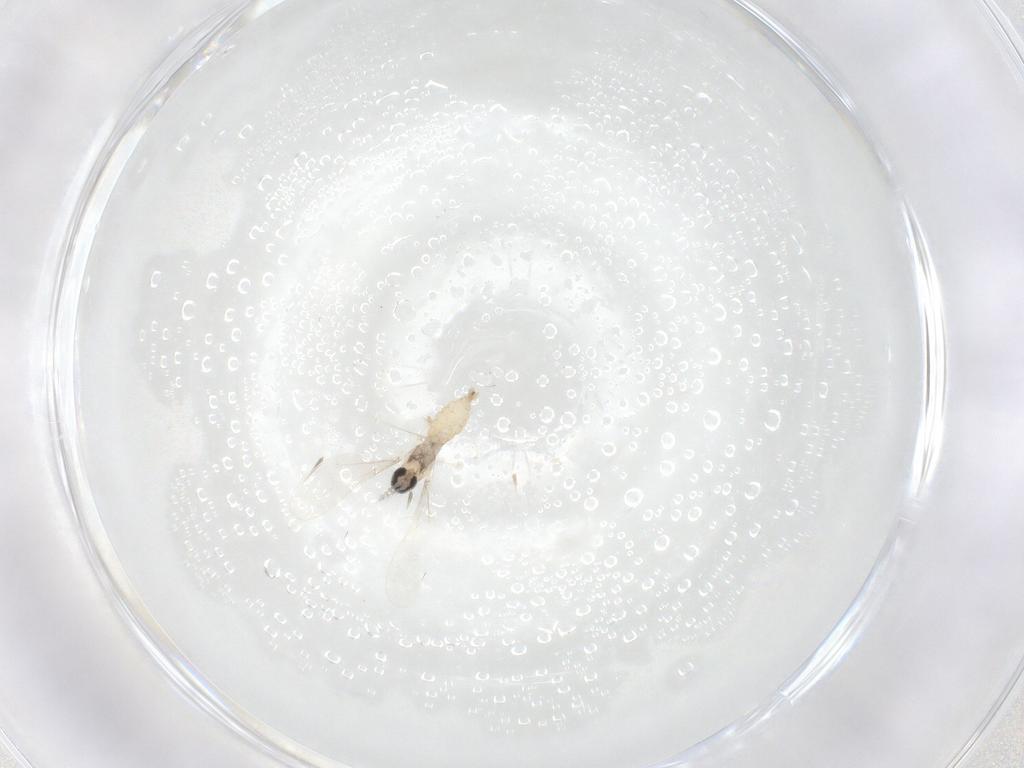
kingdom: Animalia
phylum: Arthropoda
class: Insecta
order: Diptera
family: Cecidomyiidae
